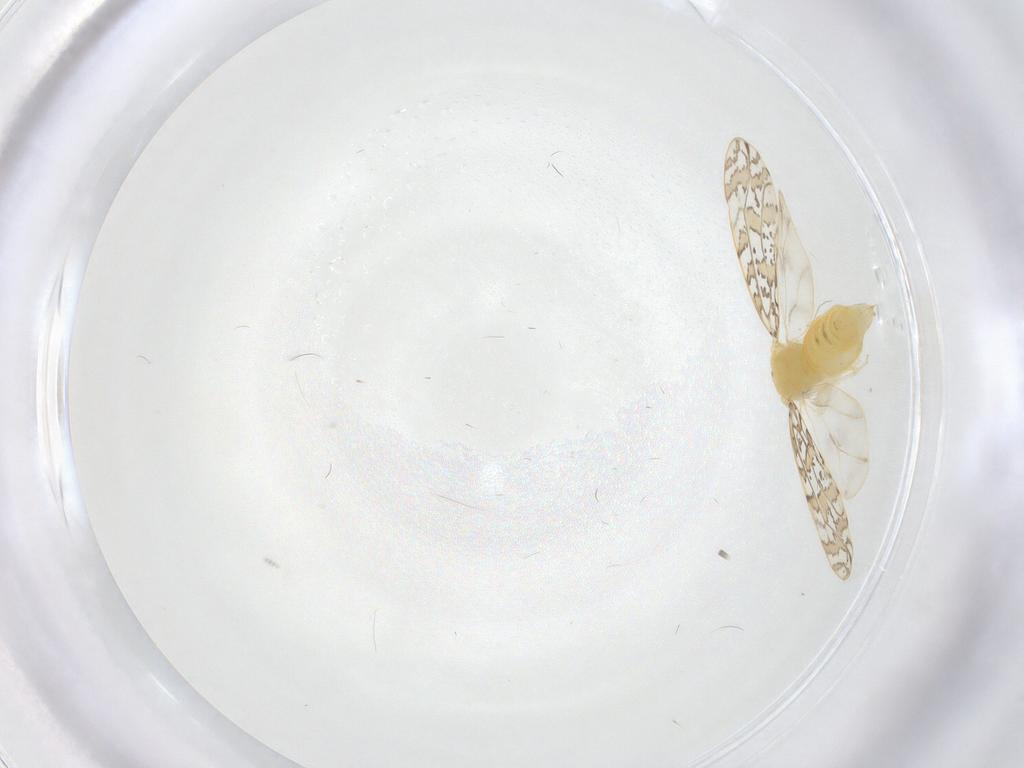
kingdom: Animalia
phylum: Arthropoda
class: Insecta
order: Hemiptera
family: Aleyrodidae
